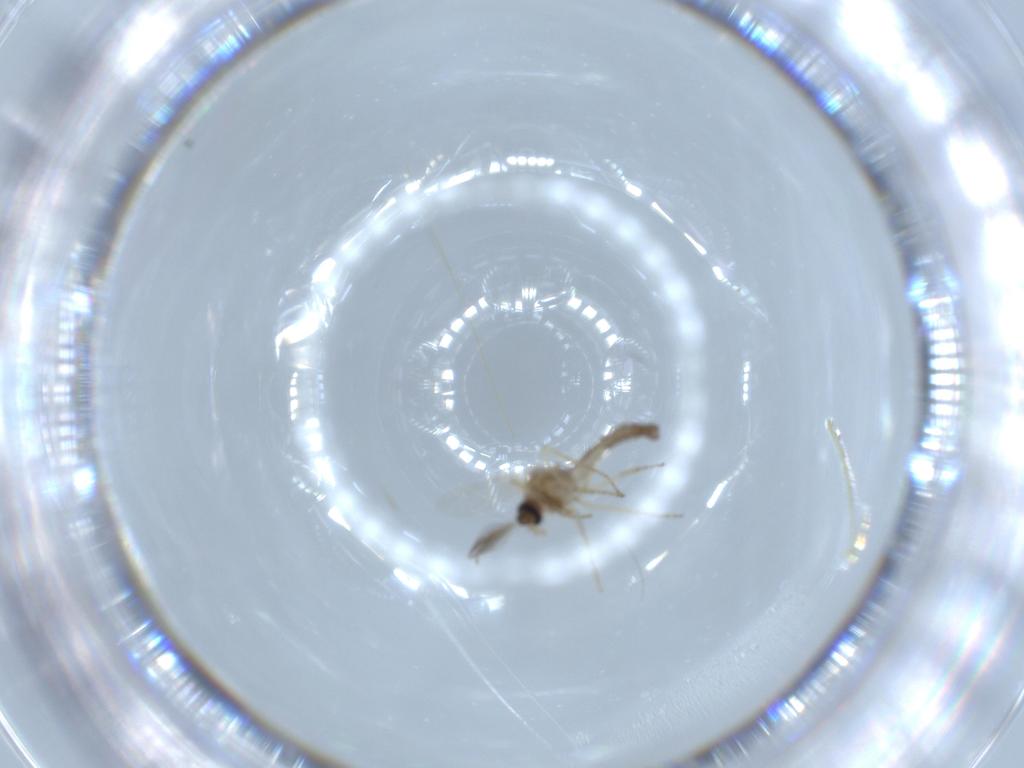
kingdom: Animalia
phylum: Arthropoda
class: Insecta
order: Diptera
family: Ceratopogonidae
